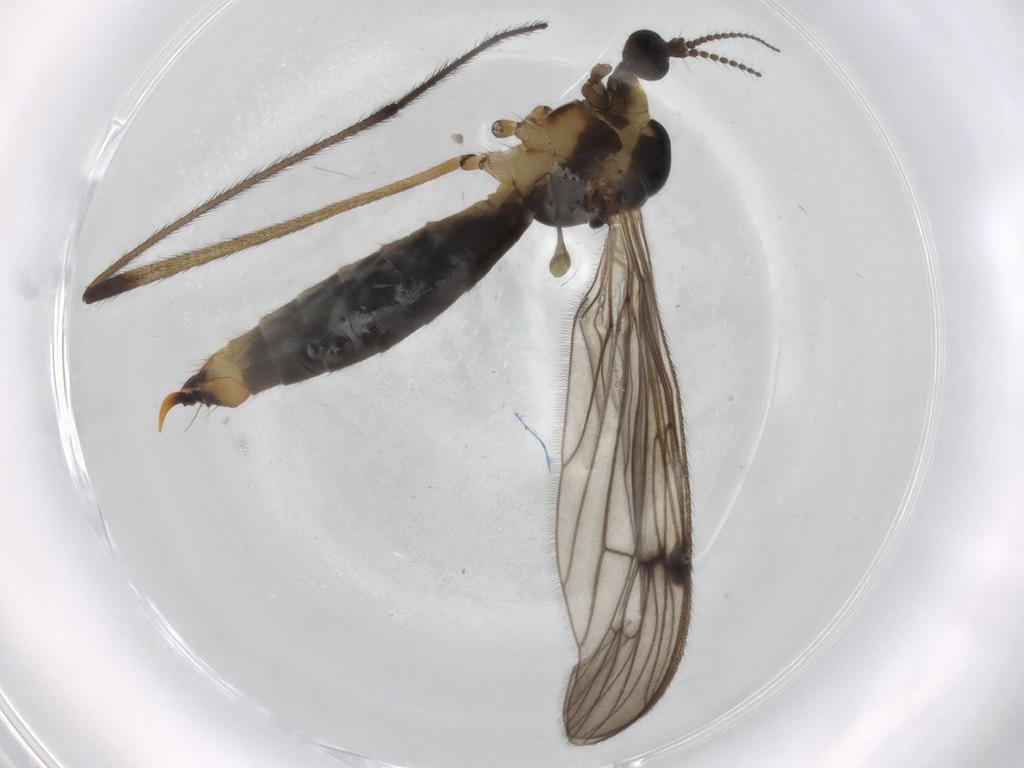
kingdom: Animalia
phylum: Arthropoda
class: Insecta
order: Diptera
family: Limoniidae
